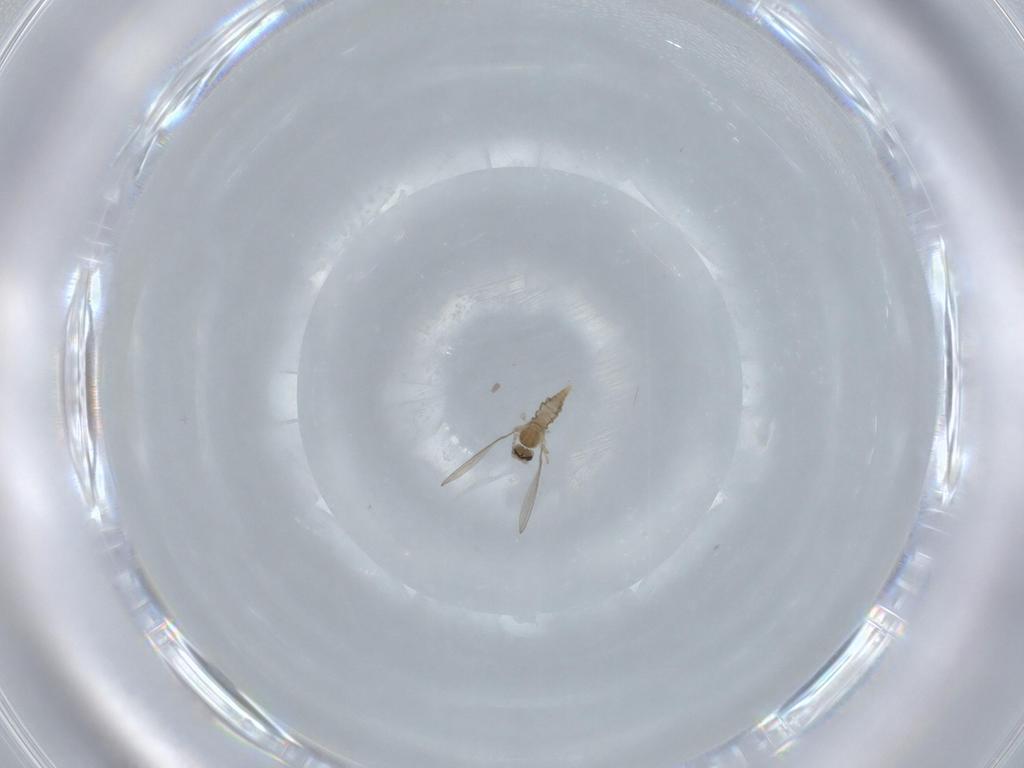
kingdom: Animalia
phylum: Arthropoda
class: Insecta
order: Diptera
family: Cecidomyiidae
